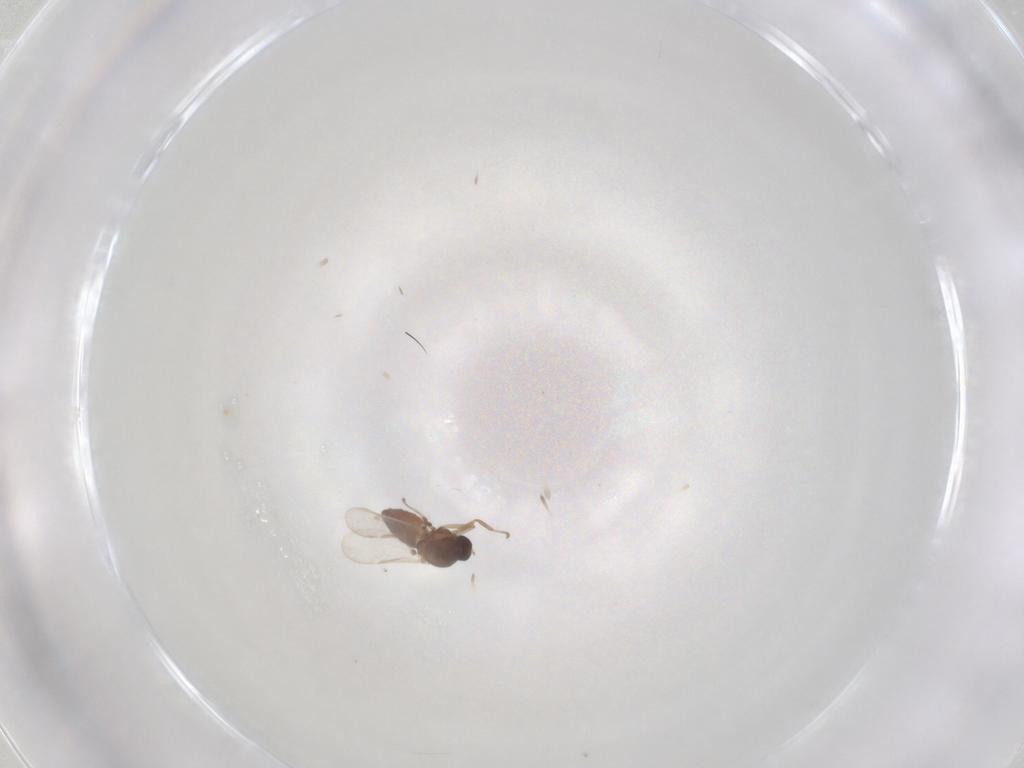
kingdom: Animalia
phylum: Arthropoda
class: Insecta
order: Diptera
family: Ceratopogonidae
